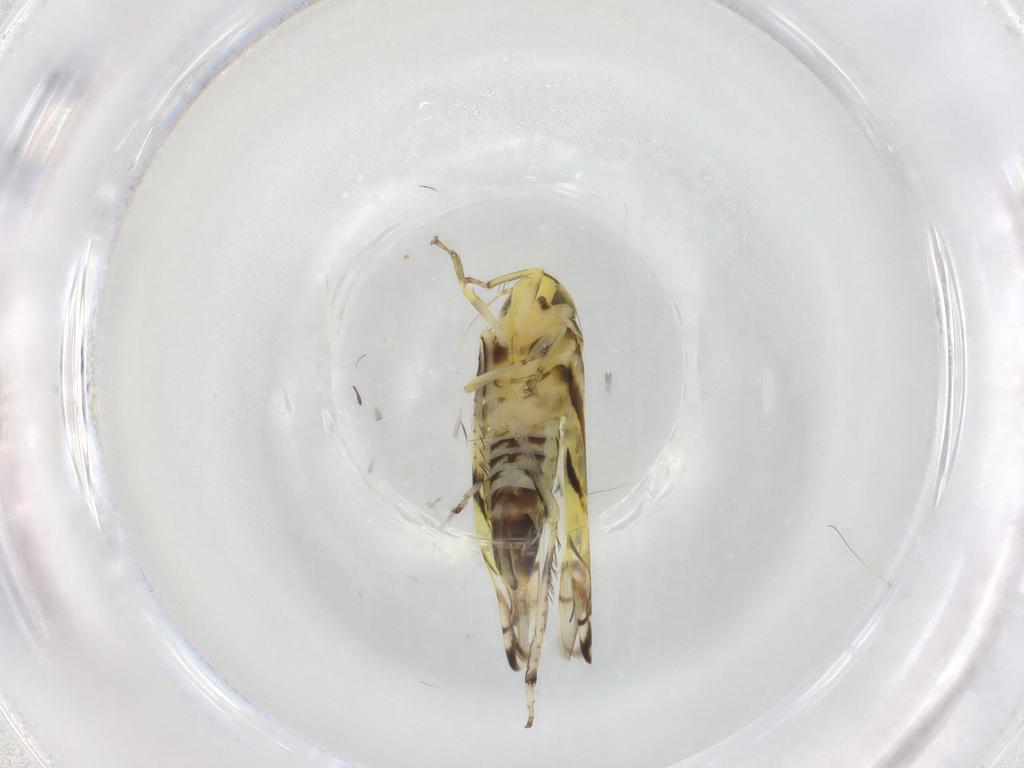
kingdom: Animalia
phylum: Arthropoda
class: Insecta
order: Hemiptera
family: Cicadellidae
